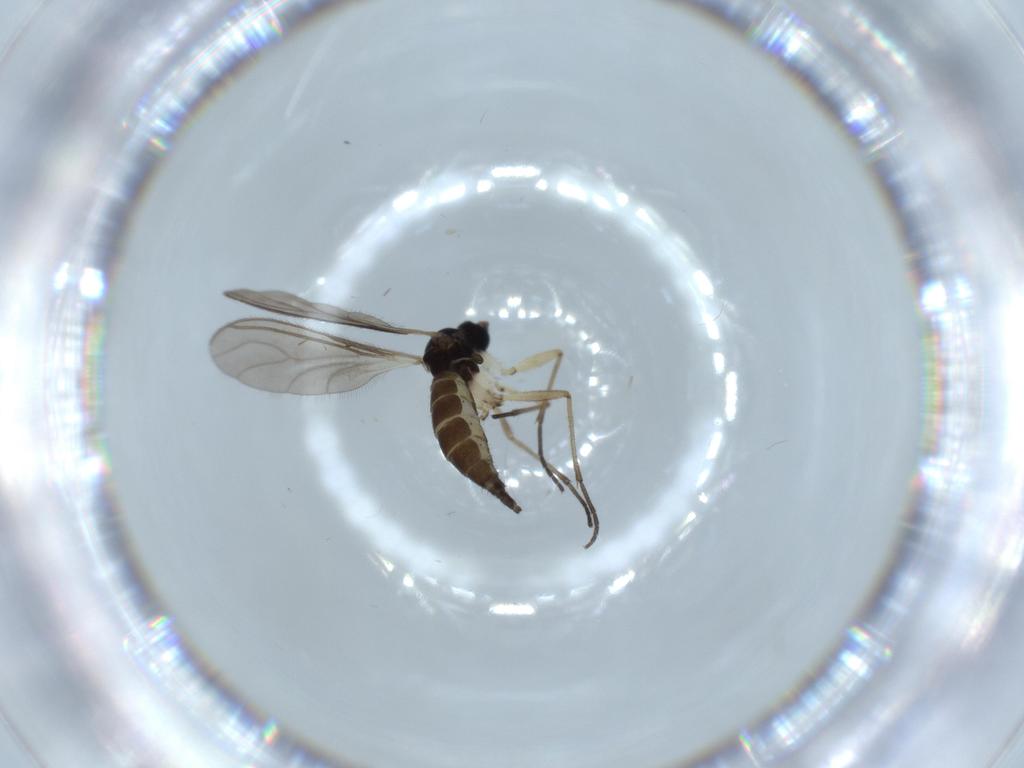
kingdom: Animalia
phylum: Arthropoda
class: Insecta
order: Diptera
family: Sciaridae
